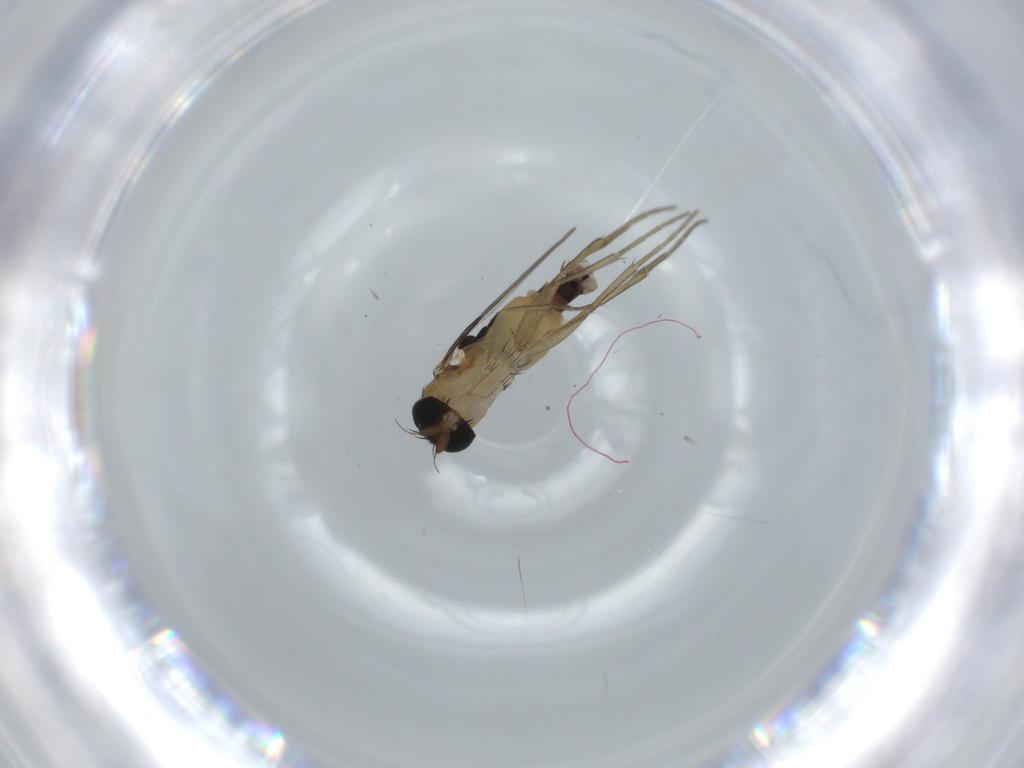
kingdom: Animalia
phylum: Arthropoda
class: Insecta
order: Diptera
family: Phoridae
